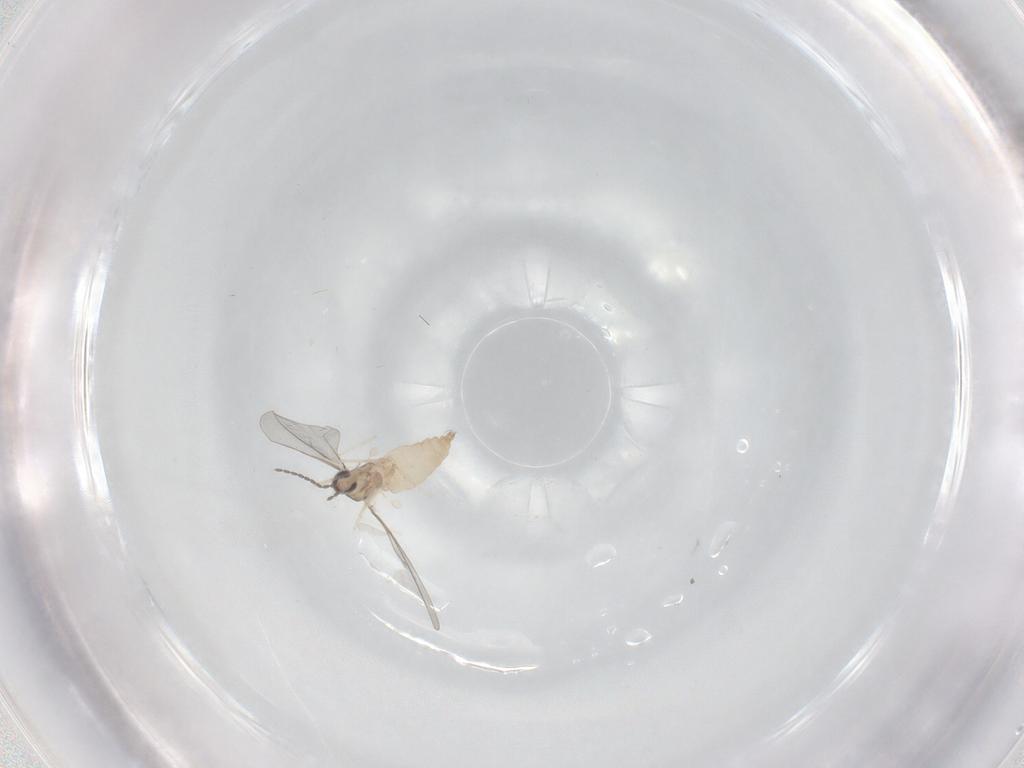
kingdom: Animalia
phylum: Arthropoda
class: Insecta
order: Diptera
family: Cecidomyiidae
